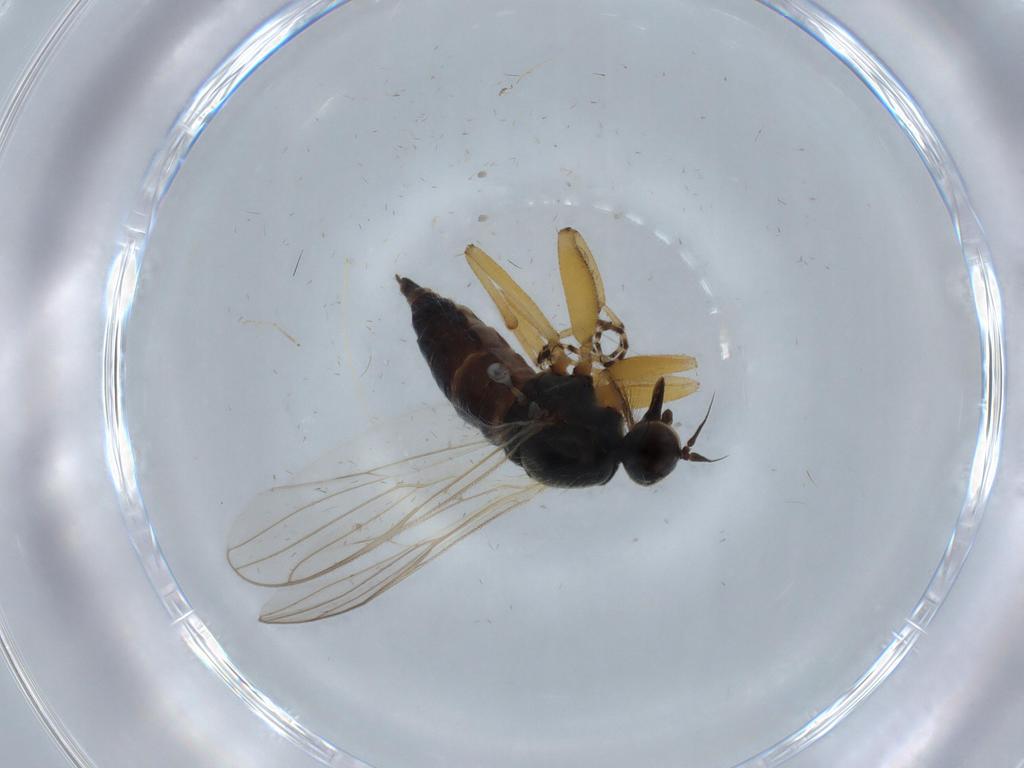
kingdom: Animalia
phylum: Arthropoda
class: Insecta
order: Diptera
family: Hybotidae
